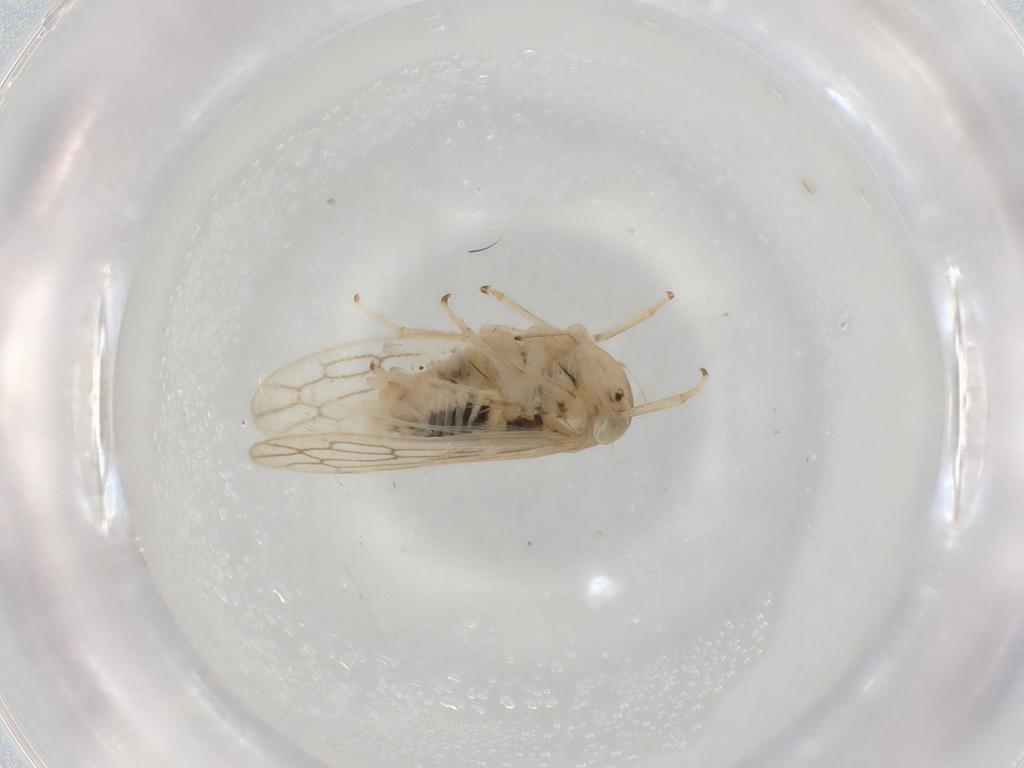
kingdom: Animalia
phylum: Arthropoda
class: Insecta
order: Hemiptera
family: Cicadellidae
